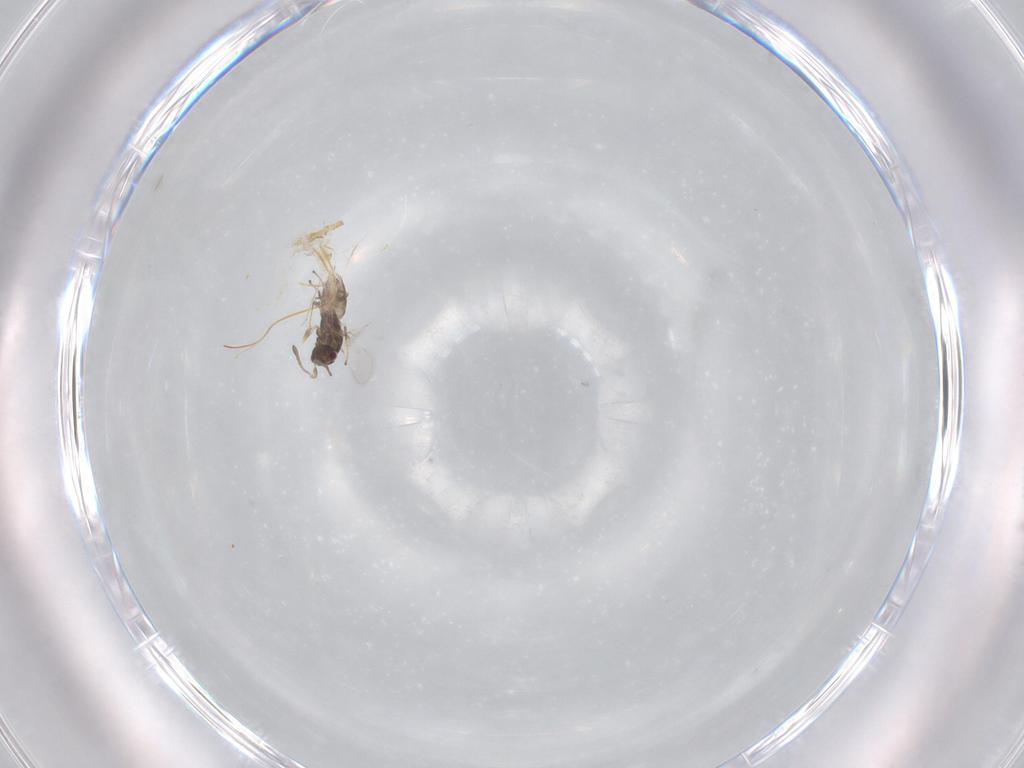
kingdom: Animalia
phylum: Arthropoda
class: Insecta
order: Hymenoptera
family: Mymaridae
